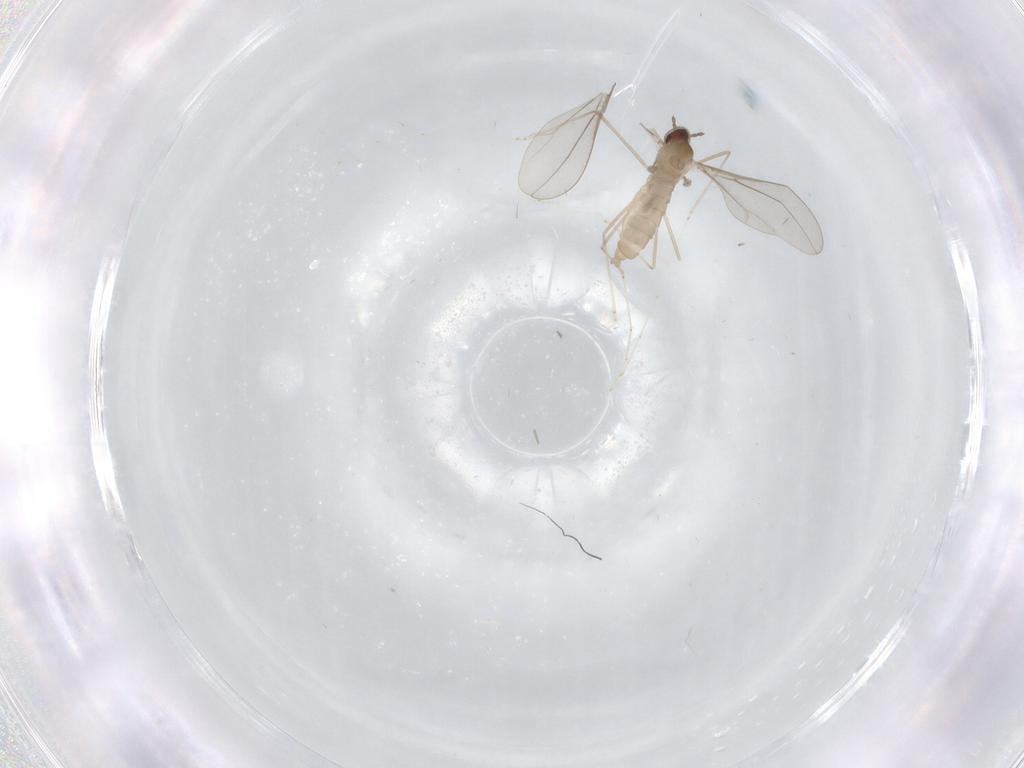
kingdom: Animalia
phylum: Arthropoda
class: Insecta
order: Diptera
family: Cecidomyiidae
